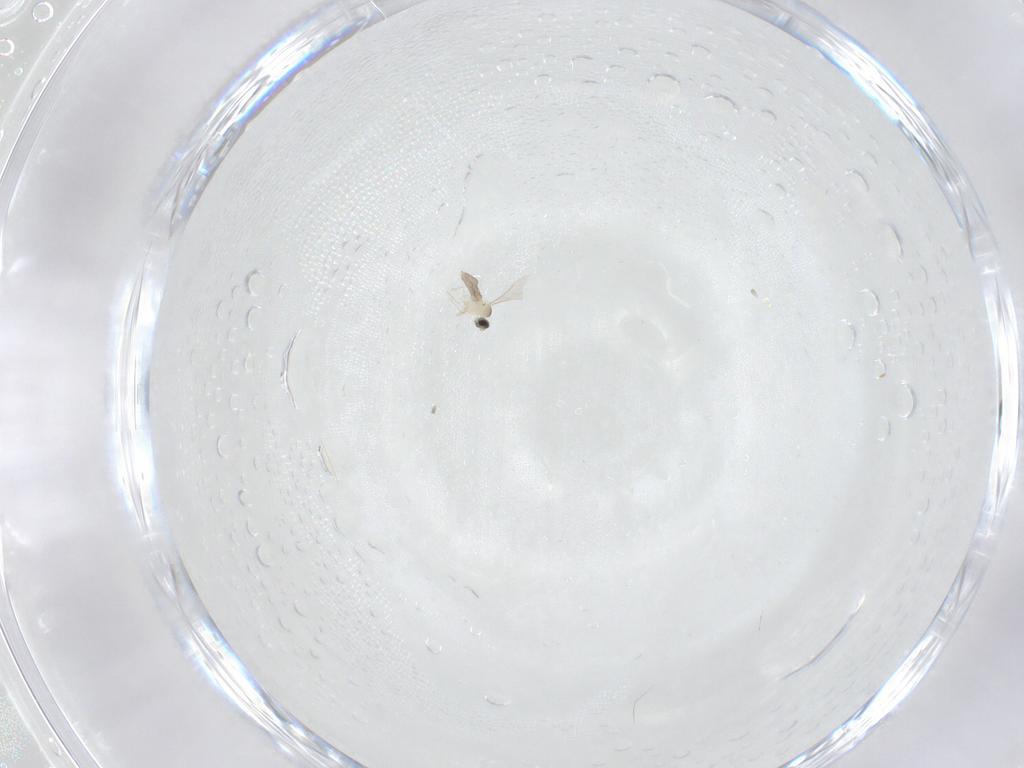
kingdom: Animalia
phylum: Arthropoda
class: Insecta
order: Diptera
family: Cecidomyiidae
